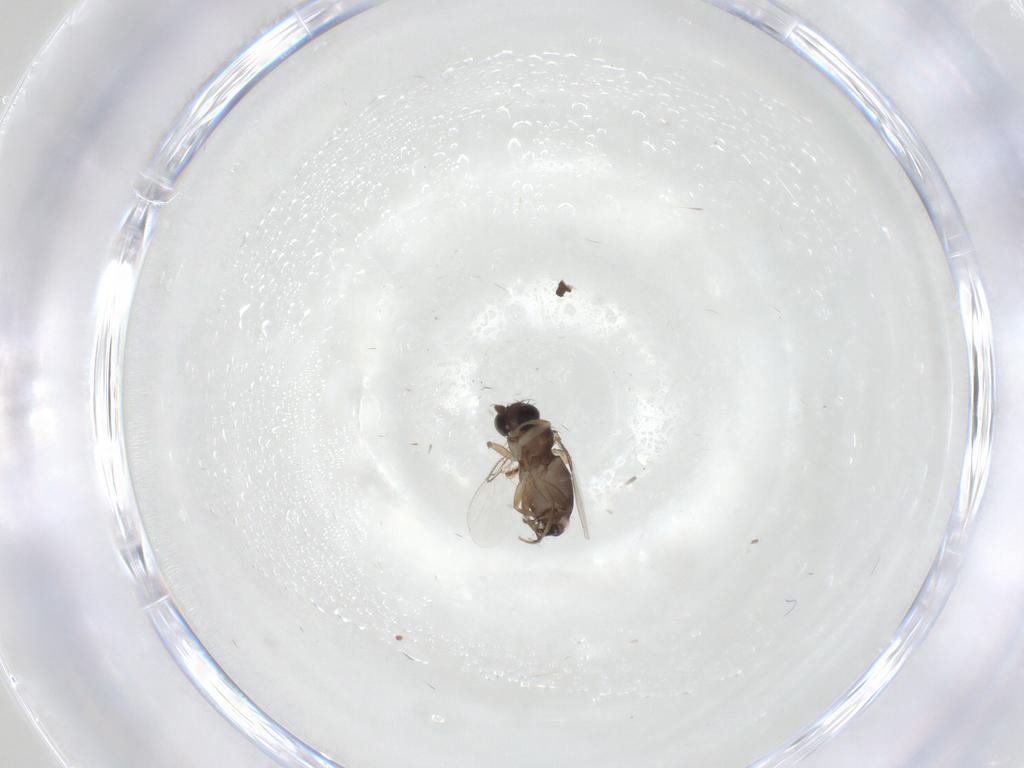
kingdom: Animalia
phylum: Arthropoda
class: Insecta
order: Diptera
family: Phoridae
